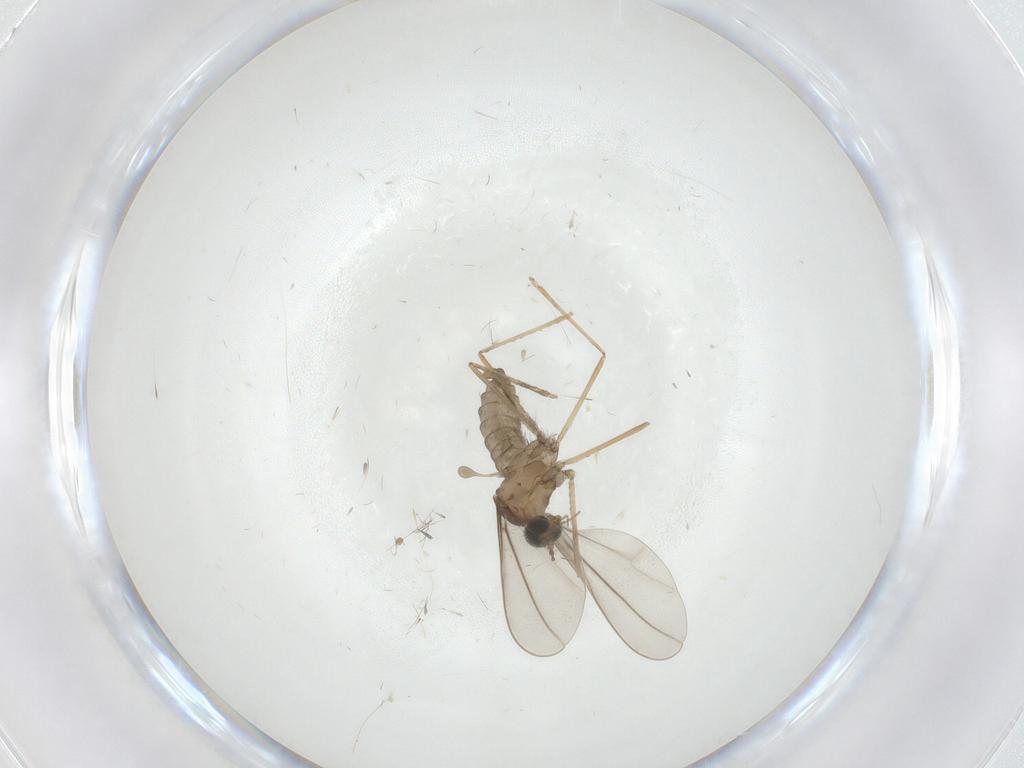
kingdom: Animalia
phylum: Arthropoda
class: Insecta
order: Diptera
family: Cecidomyiidae
